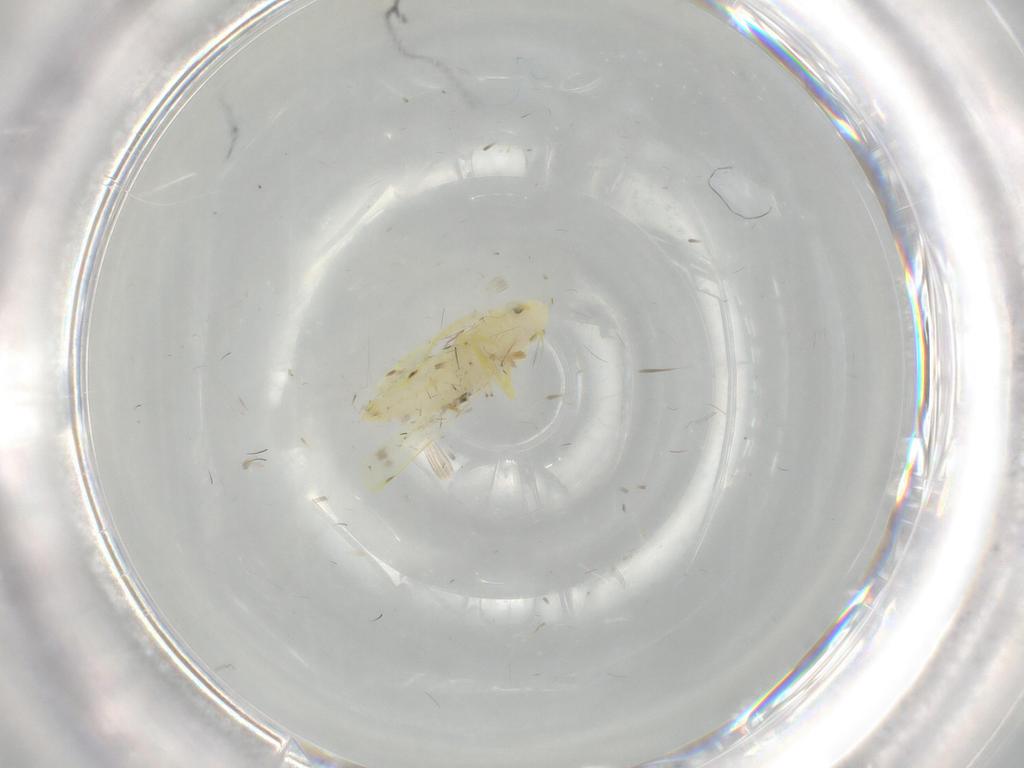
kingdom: Animalia
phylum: Arthropoda
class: Insecta
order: Hemiptera
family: Cicadellidae
